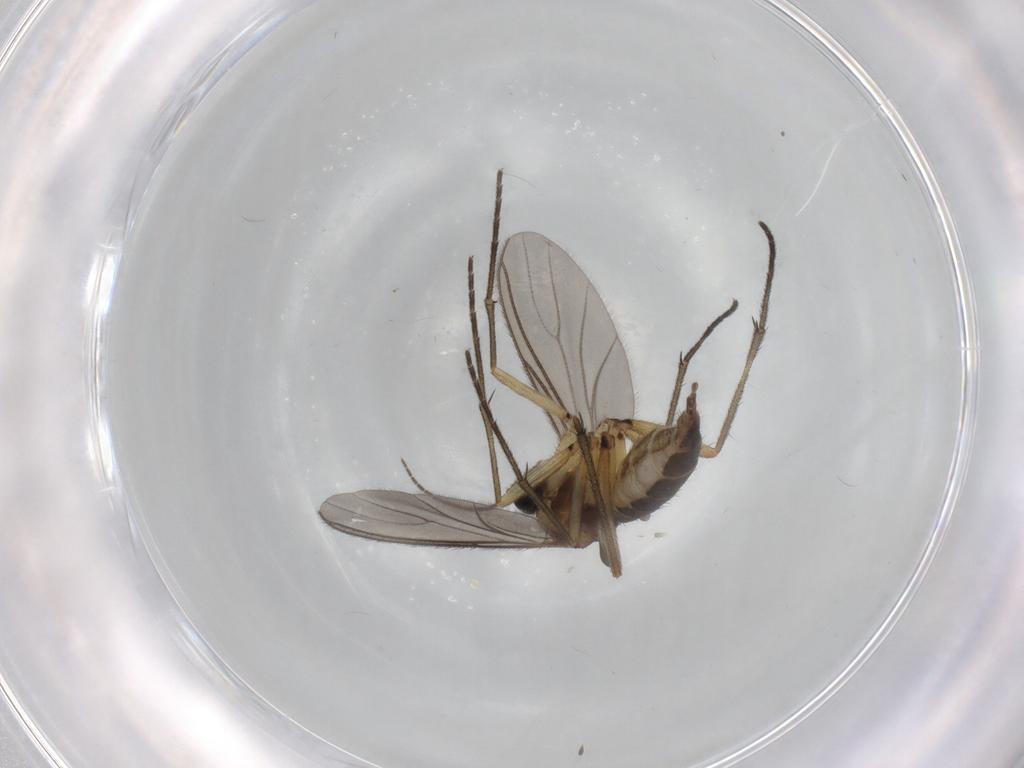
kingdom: Animalia
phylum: Arthropoda
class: Insecta
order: Diptera
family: Sciaridae
